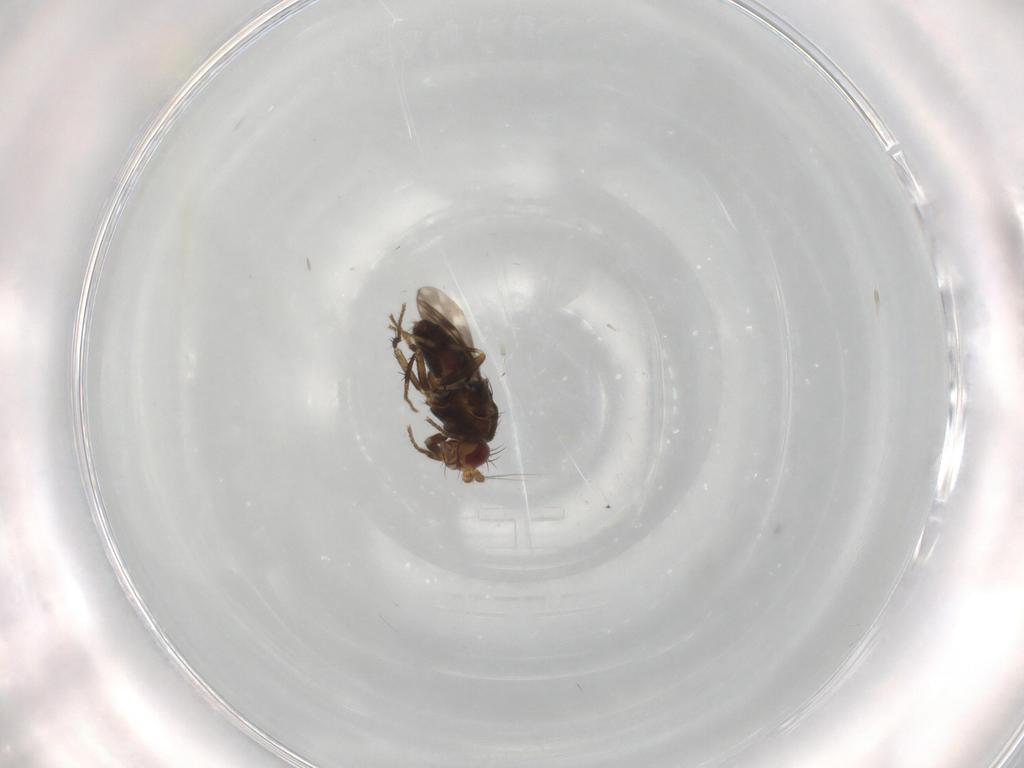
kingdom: Animalia
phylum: Arthropoda
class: Insecta
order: Diptera
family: Sphaeroceridae
